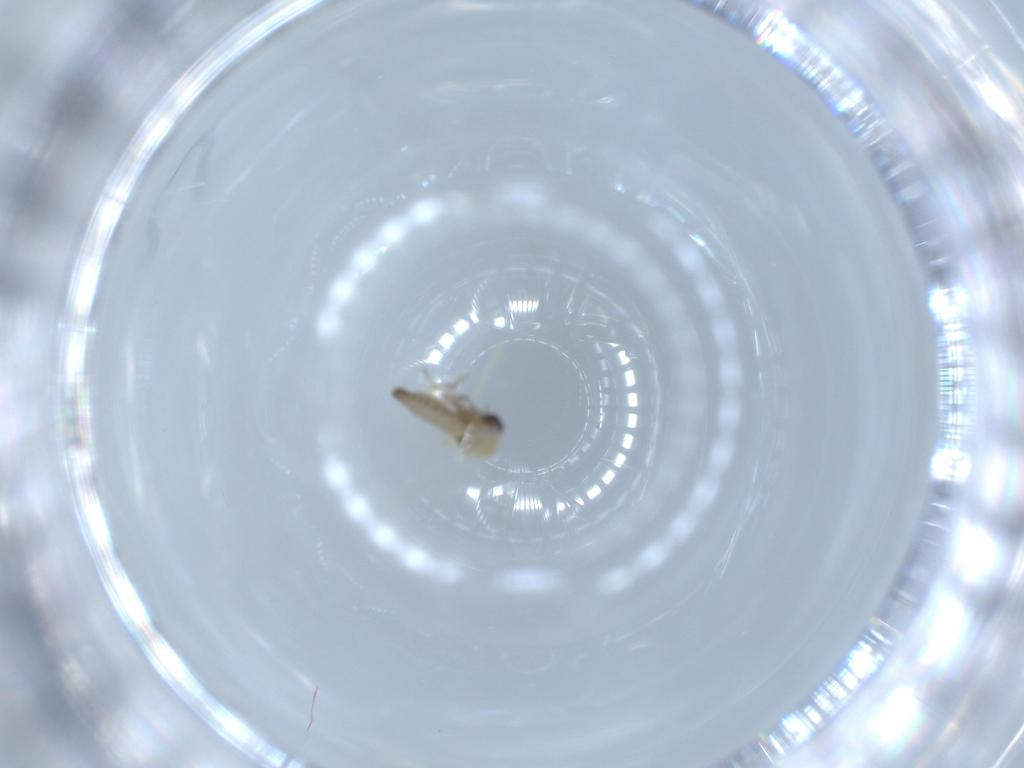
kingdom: Animalia
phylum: Arthropoda
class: Insecta
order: Diptera
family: Chironomidae
